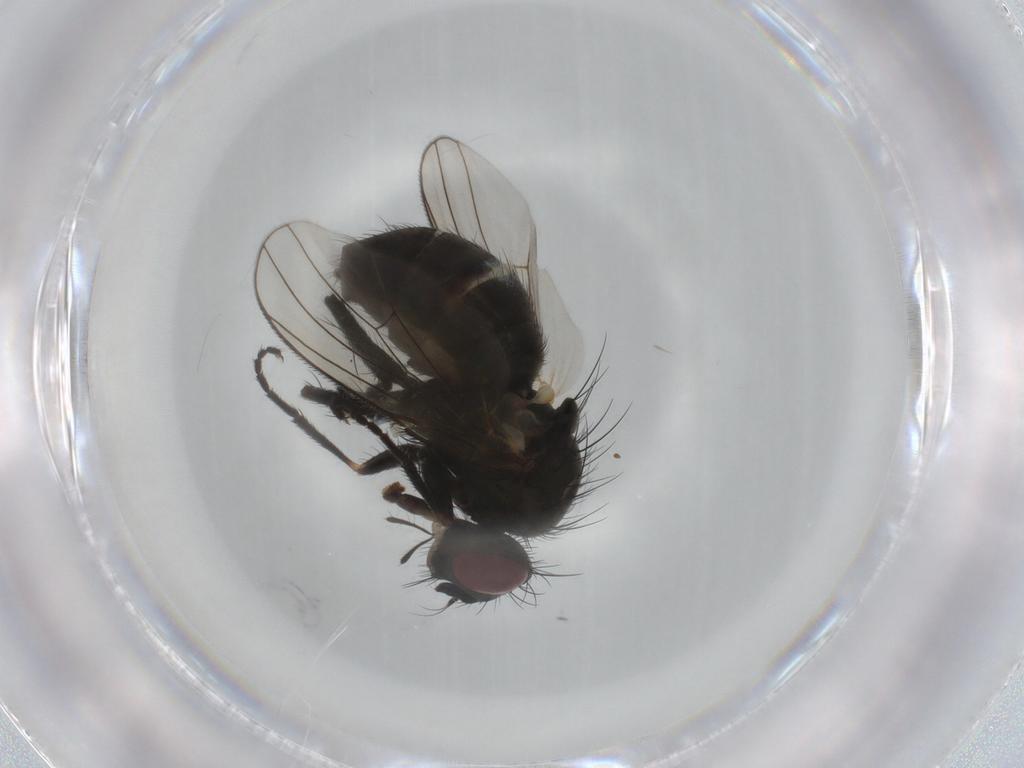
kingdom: Animalia
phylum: Arthropoda
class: Insecta
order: Diptera
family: Muscidae
